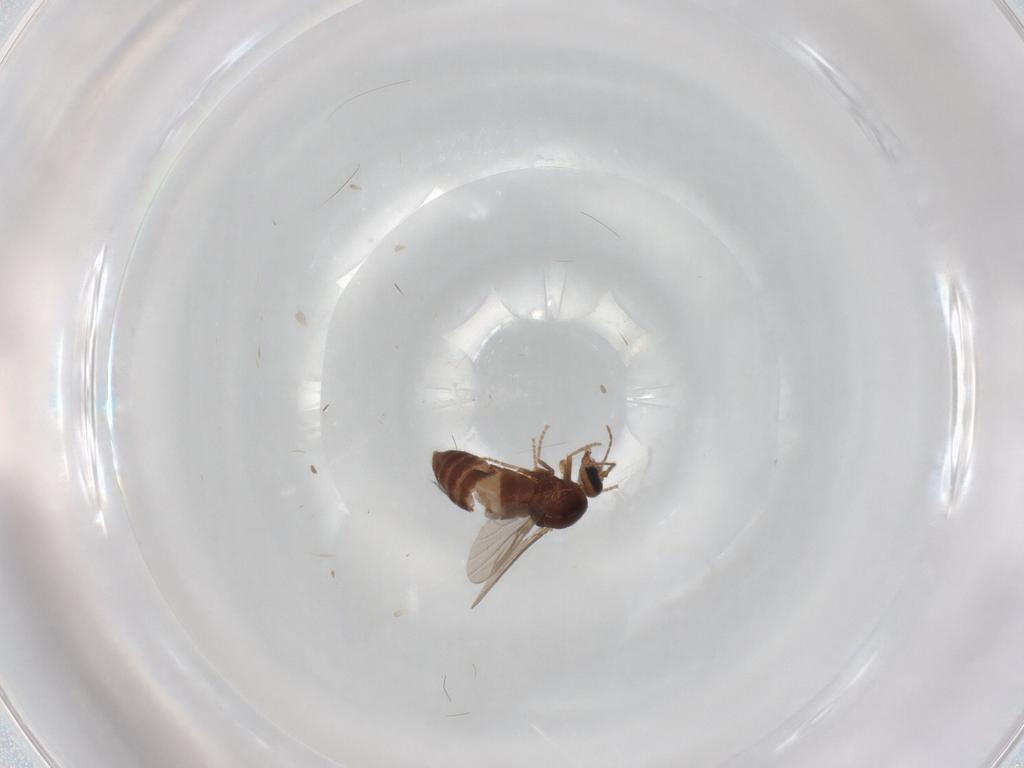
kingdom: Animalia
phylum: Arthropoda
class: Insecta
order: Diptera
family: Ceratopogonidae
